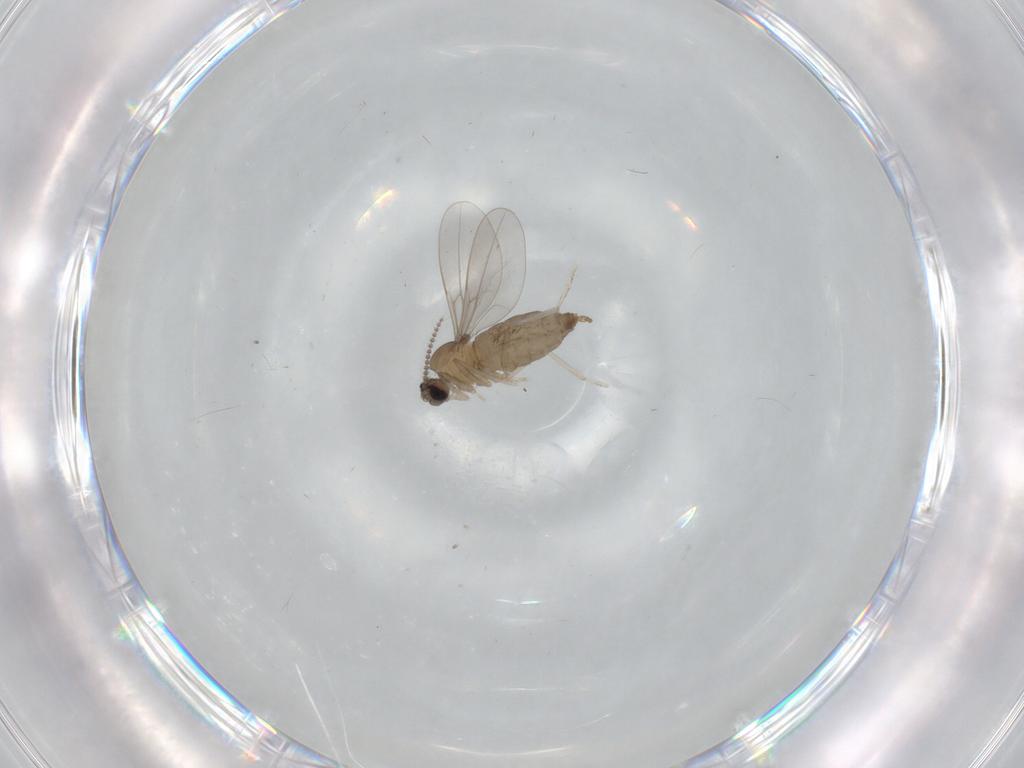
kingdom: Animalia
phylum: Arthropoda
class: Insecta
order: Diptera
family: Cecidomyiidae
